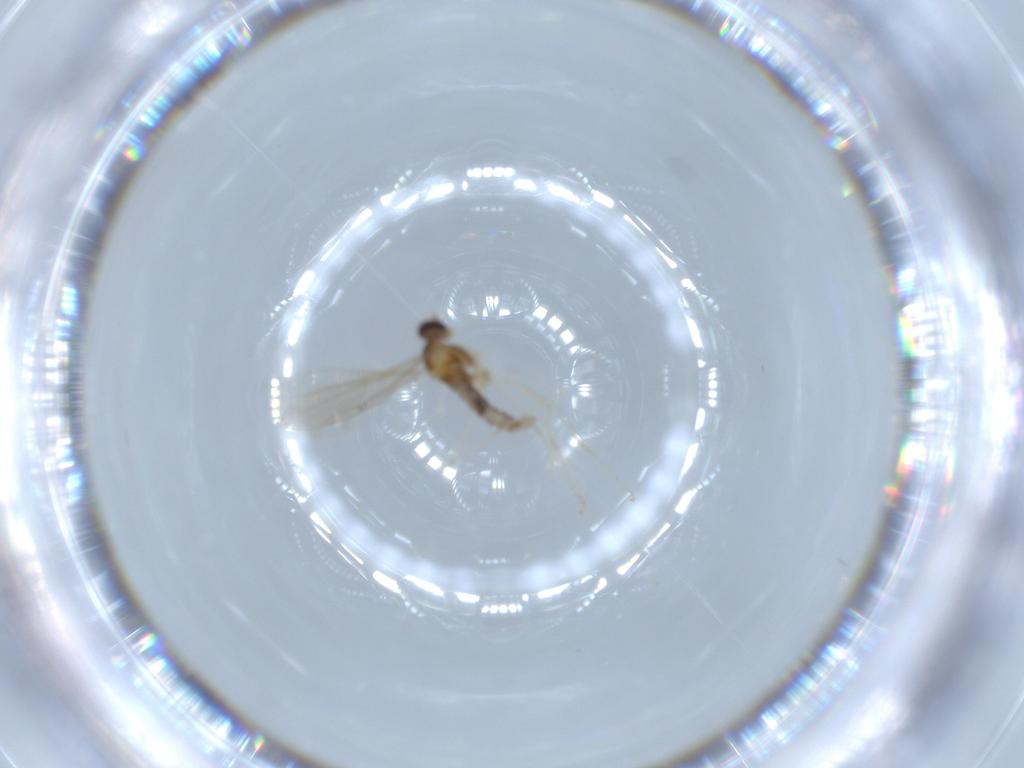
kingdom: Animalia
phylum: Arthropoda
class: Insecta
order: Diptera
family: Cecidomyiidae
